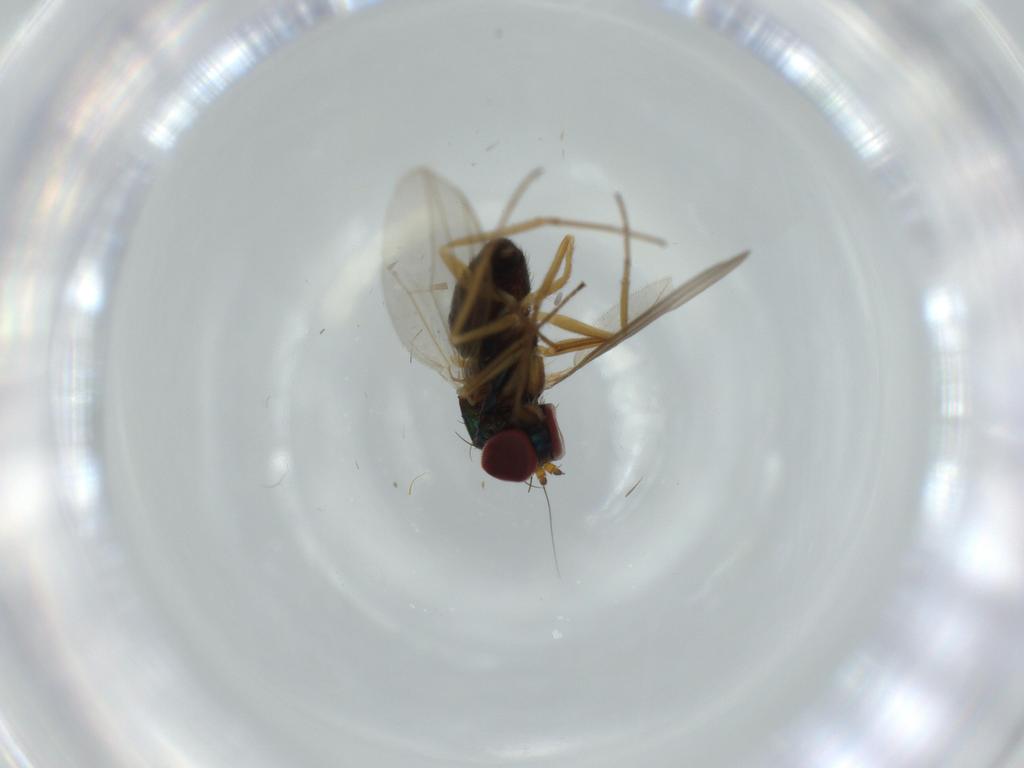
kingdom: Animalia
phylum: Arthropoda
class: Insecta
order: Diptera
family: Dolichopodidae
